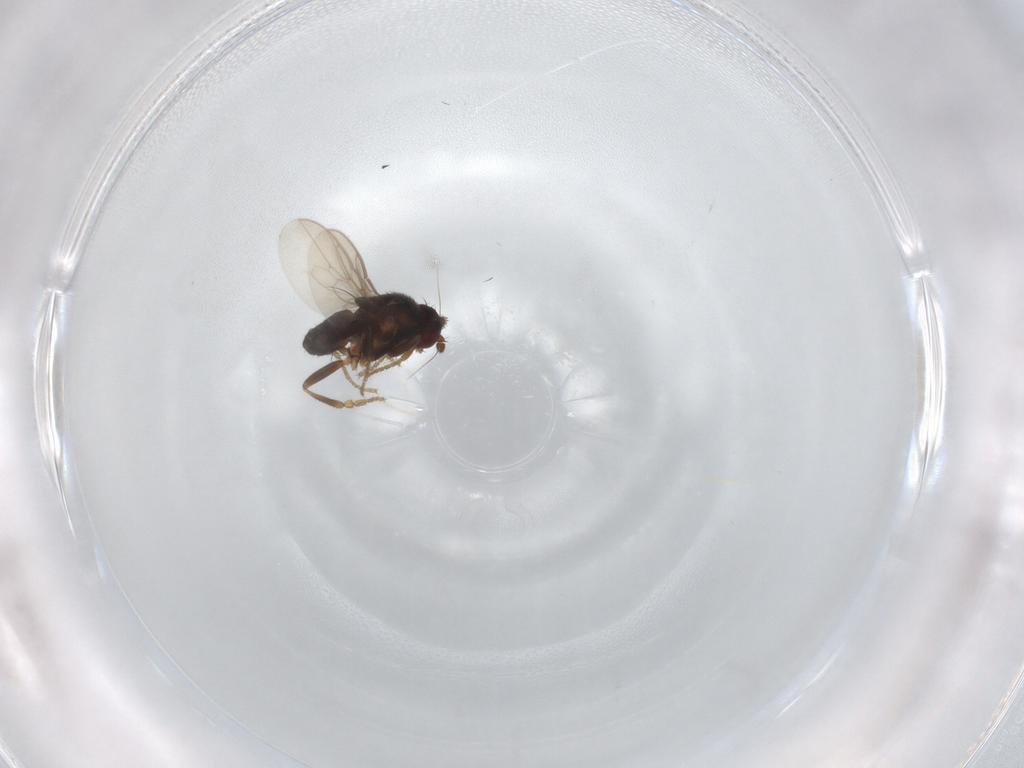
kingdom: Animalia
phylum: Arthropoda
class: Insecta
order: Diptera
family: Sphaeroceridae
